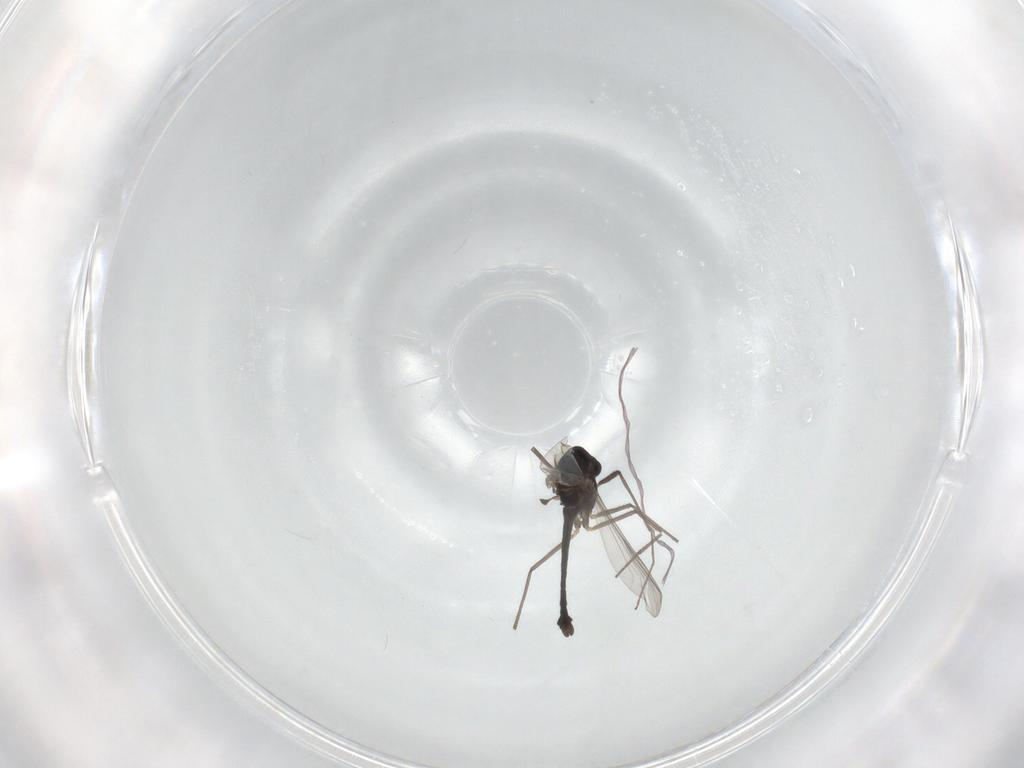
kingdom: Animalia
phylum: Arthropoda
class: Insecta
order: Diptera
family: Chironomidae
